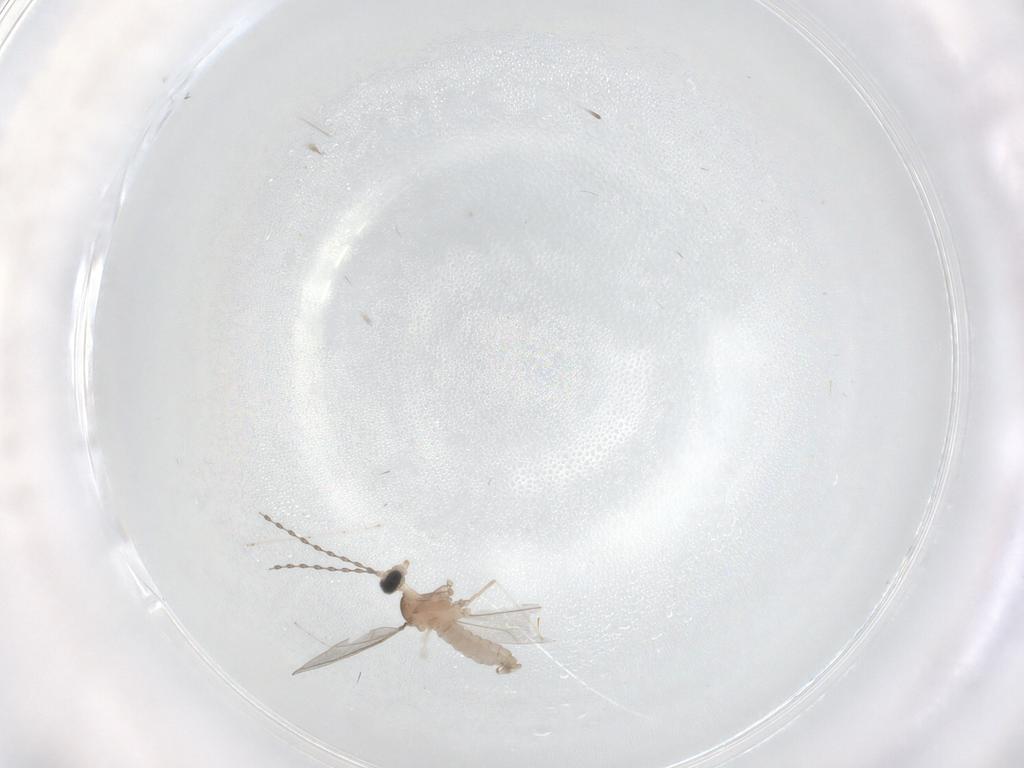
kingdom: Animalia
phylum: Arthropoda
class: Insecta
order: Diptera
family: Cecidomyiidae
